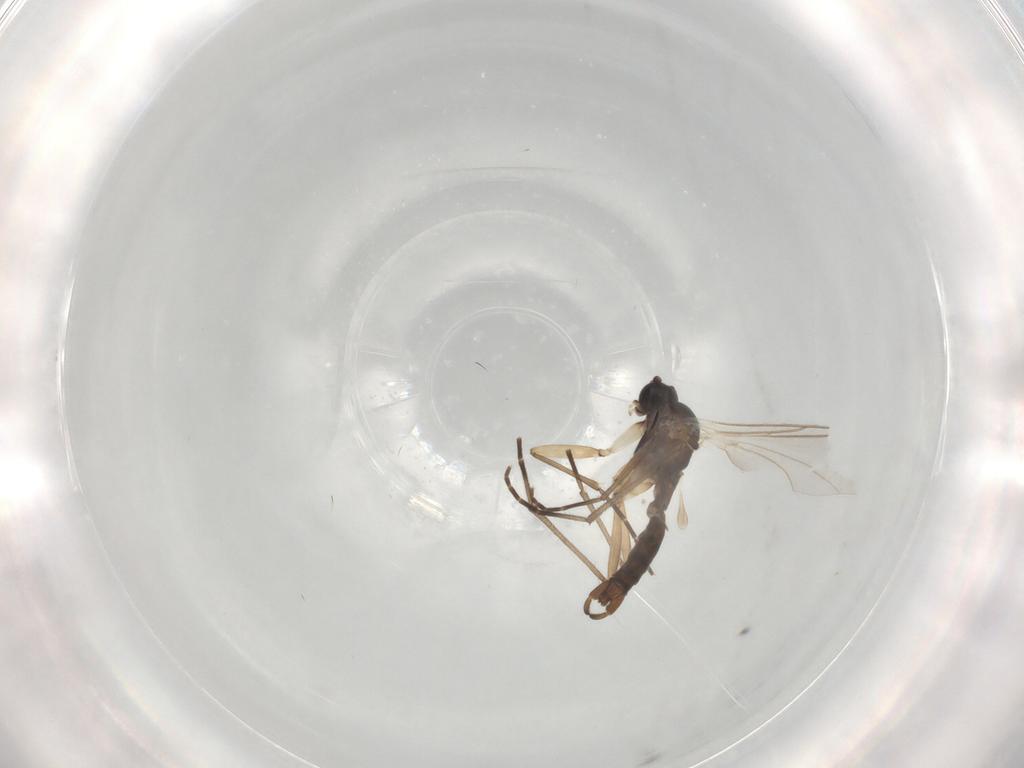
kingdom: Animalia
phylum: Arthropoda
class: Insecta
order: Diptera
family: Sciaridae
